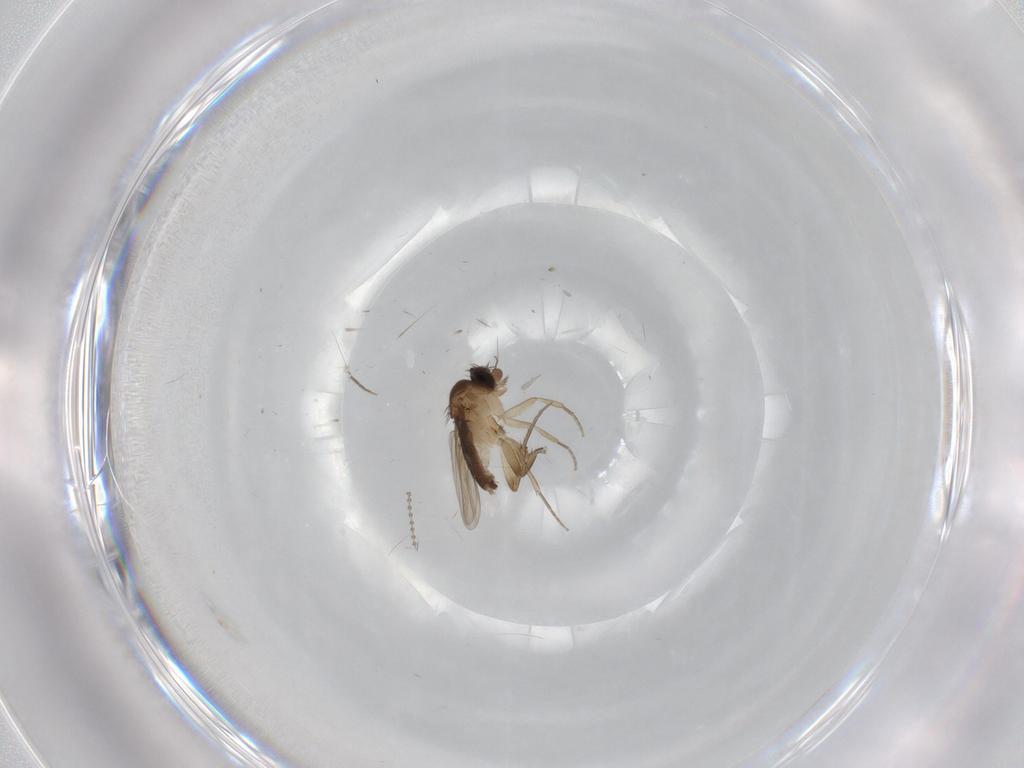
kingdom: Animalia
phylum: Arthropoda
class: Insecta
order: Diptera
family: Phoridae
